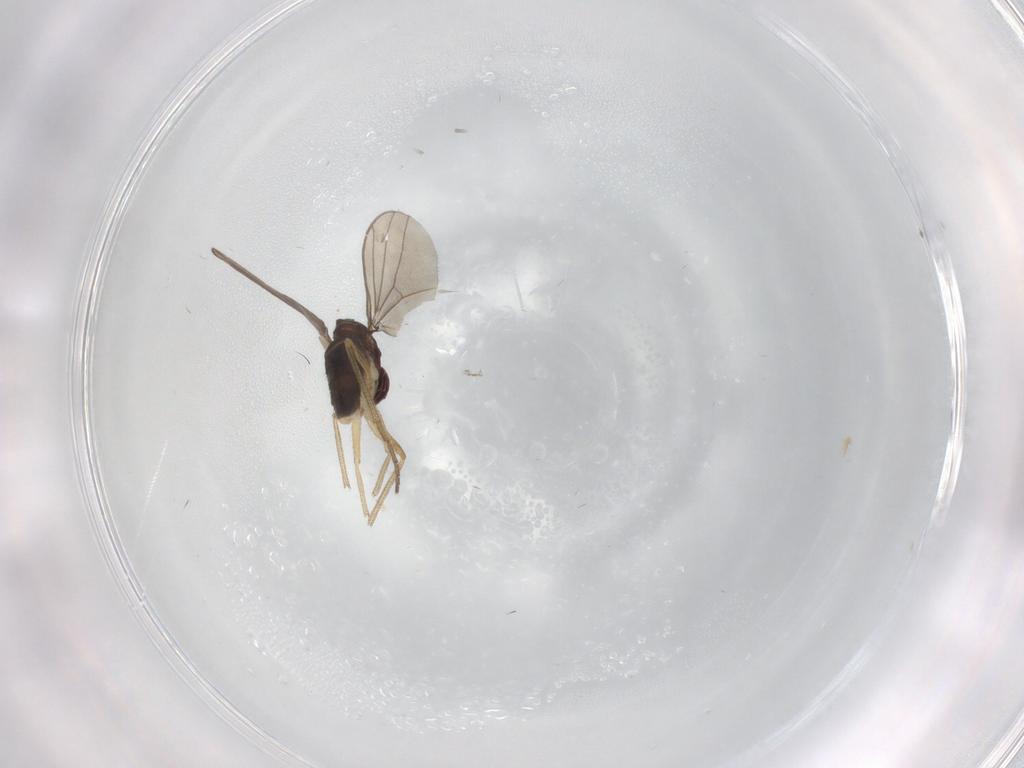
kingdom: Animalia
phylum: Arthropoda
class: Insecta
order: Diptera
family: Dolichopodidae
